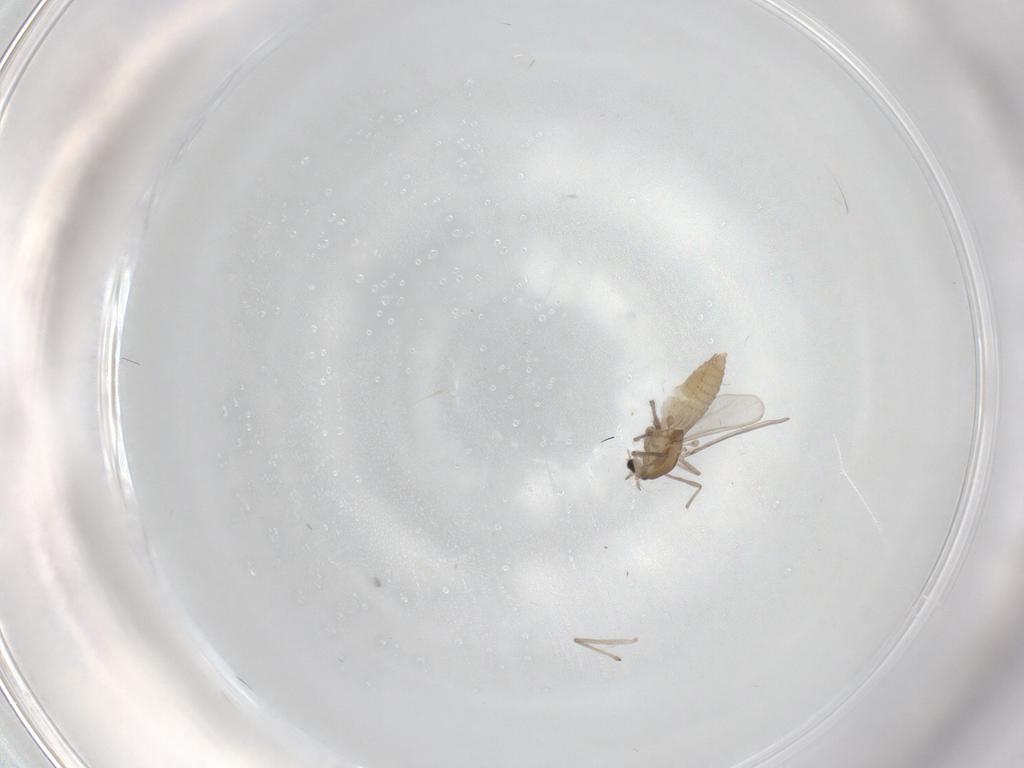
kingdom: Animalia
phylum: Arthropoda
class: Insecta
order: Diptera
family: Chironomidae
